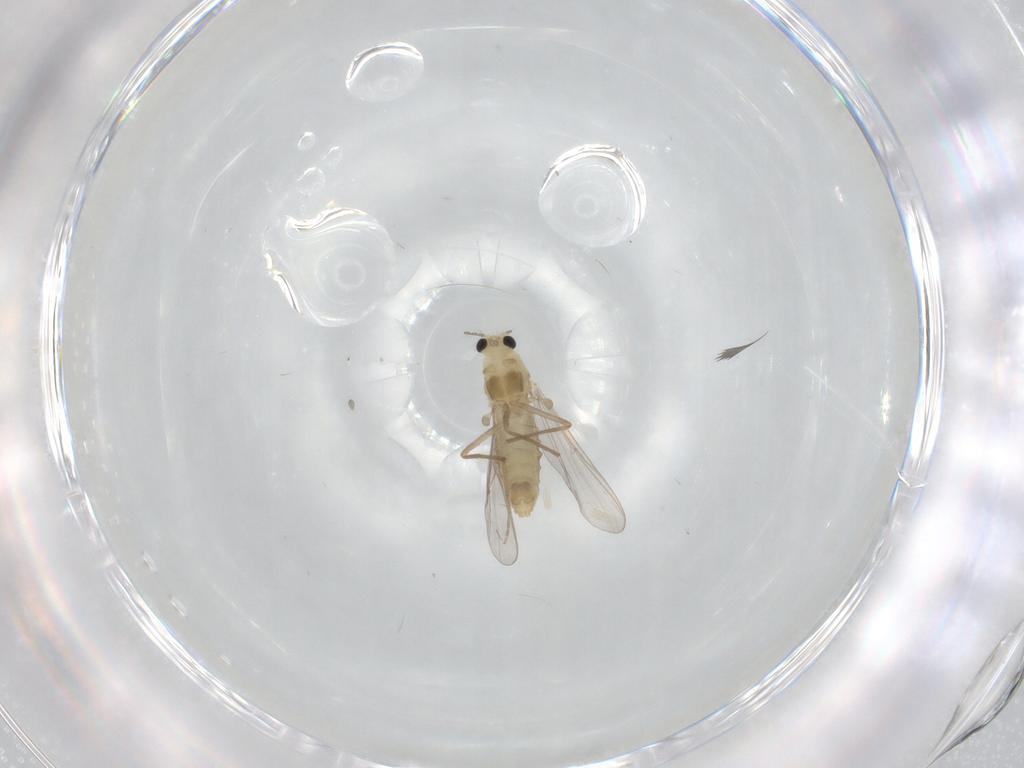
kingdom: Animalia
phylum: Arthropoda
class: Insecta
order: Diptera
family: Chironomidae
